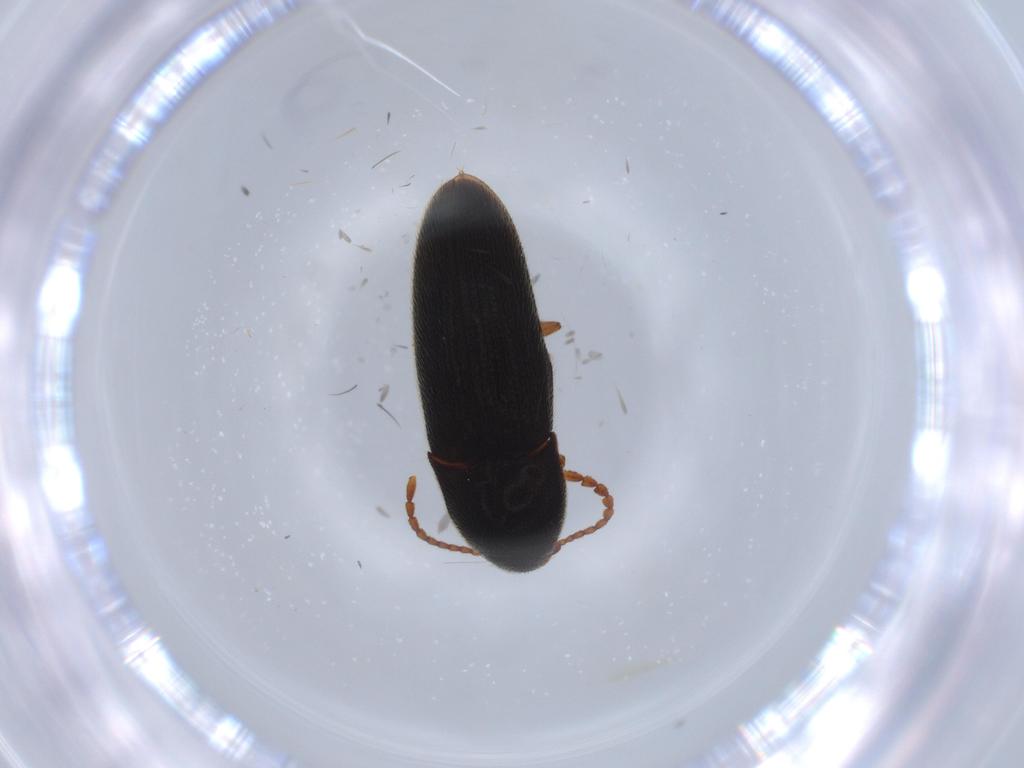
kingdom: Animalia
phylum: Arthropoda
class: Insecta
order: Coleoptera
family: Elateridae
